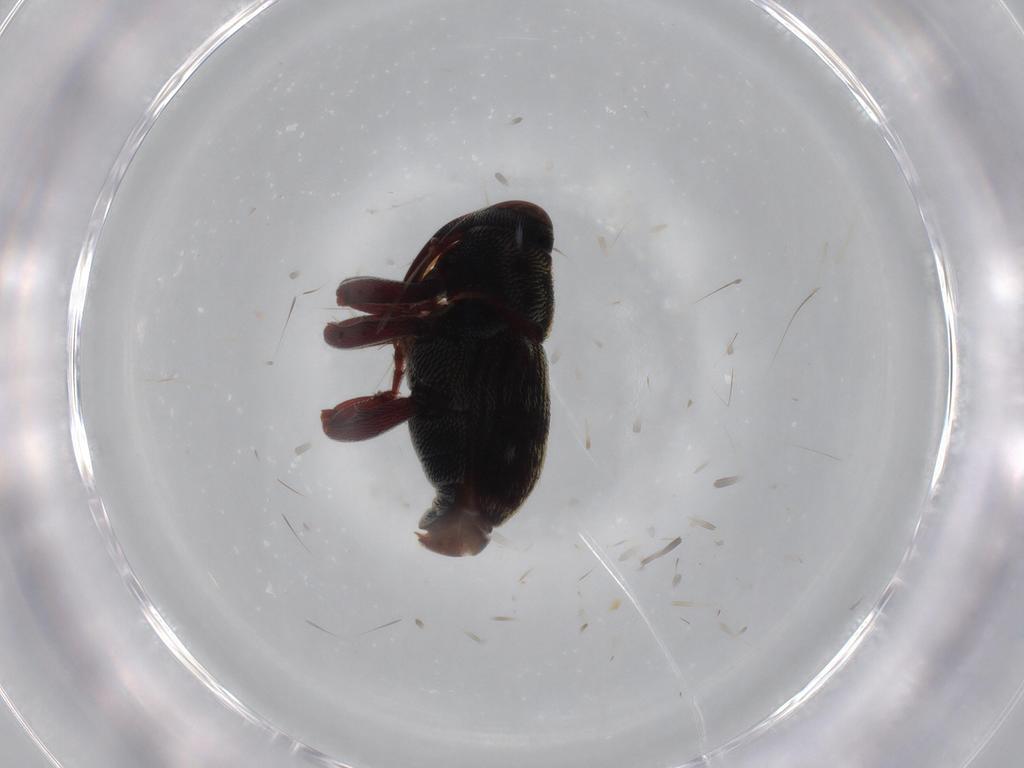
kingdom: Animalia
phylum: Arthropoda
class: Insecta
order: Coleoptera
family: Curculionidae
